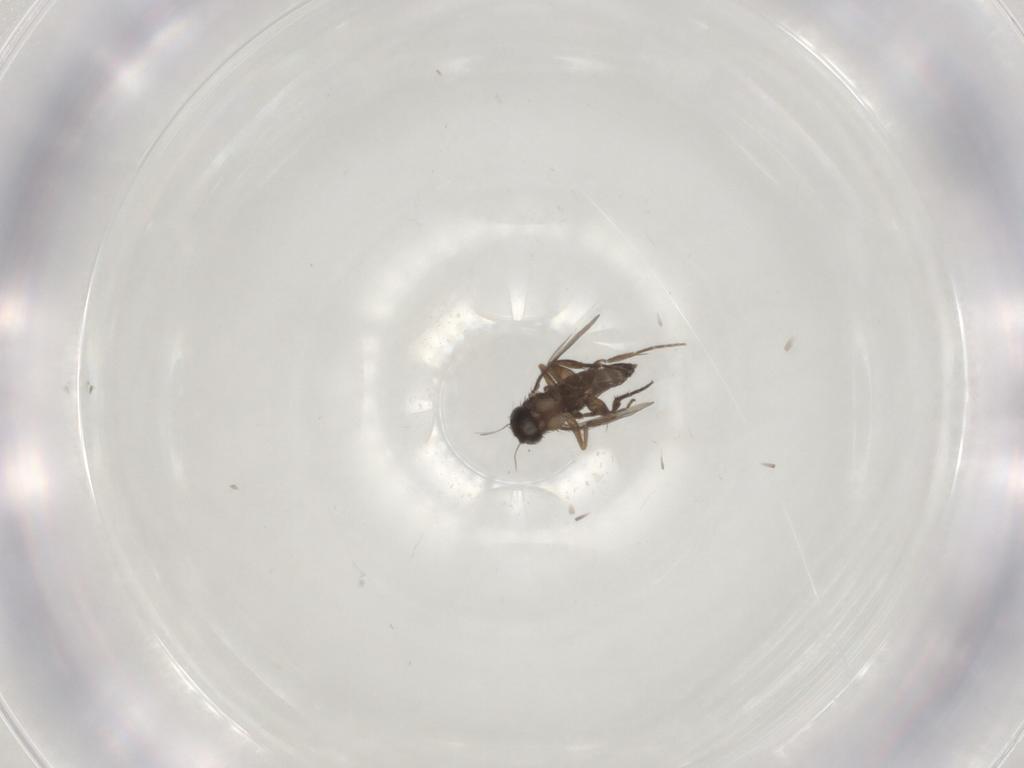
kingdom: Animalia
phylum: Arthropoda
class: Insecta
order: Diptera
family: Phoridae
